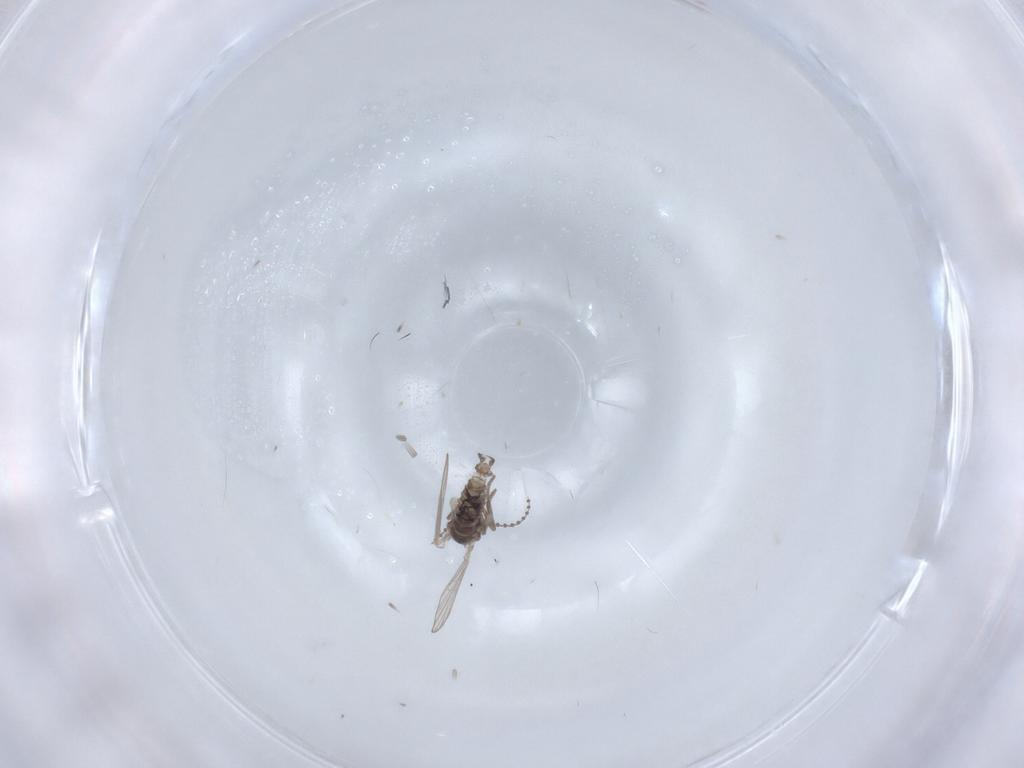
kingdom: Animalia
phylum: Arthropoda
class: Insecta
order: Diptera
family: Psychodidae
